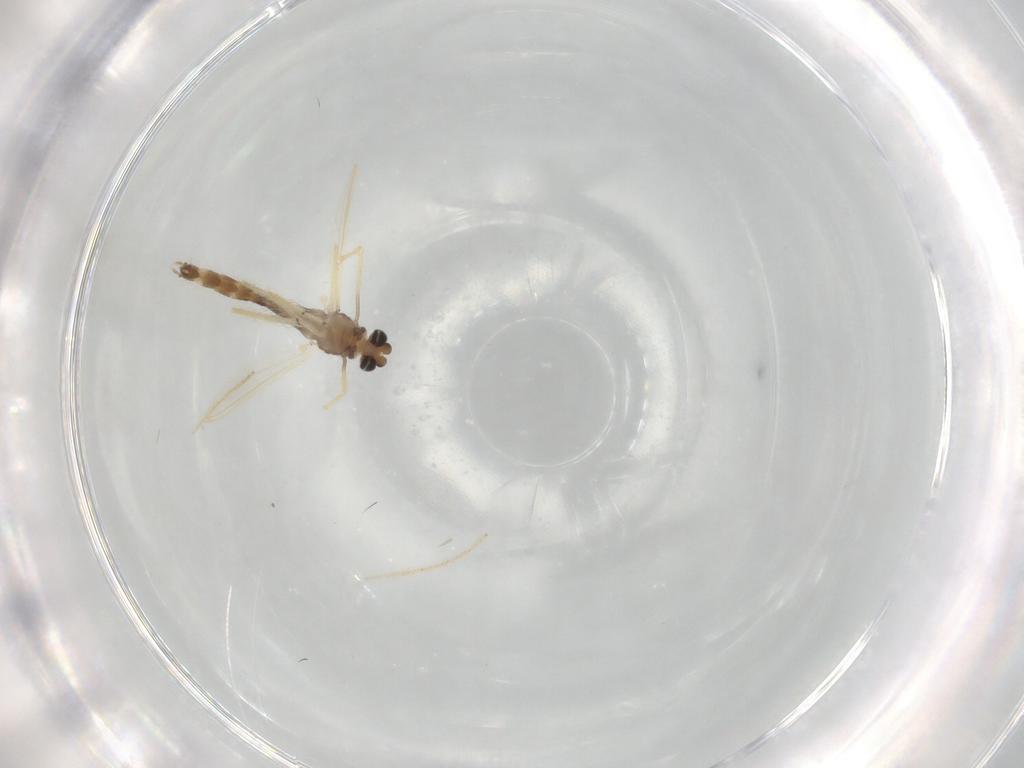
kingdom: Animalia
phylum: Arthropoda
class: Insecta
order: Diptera
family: Chironomidae
